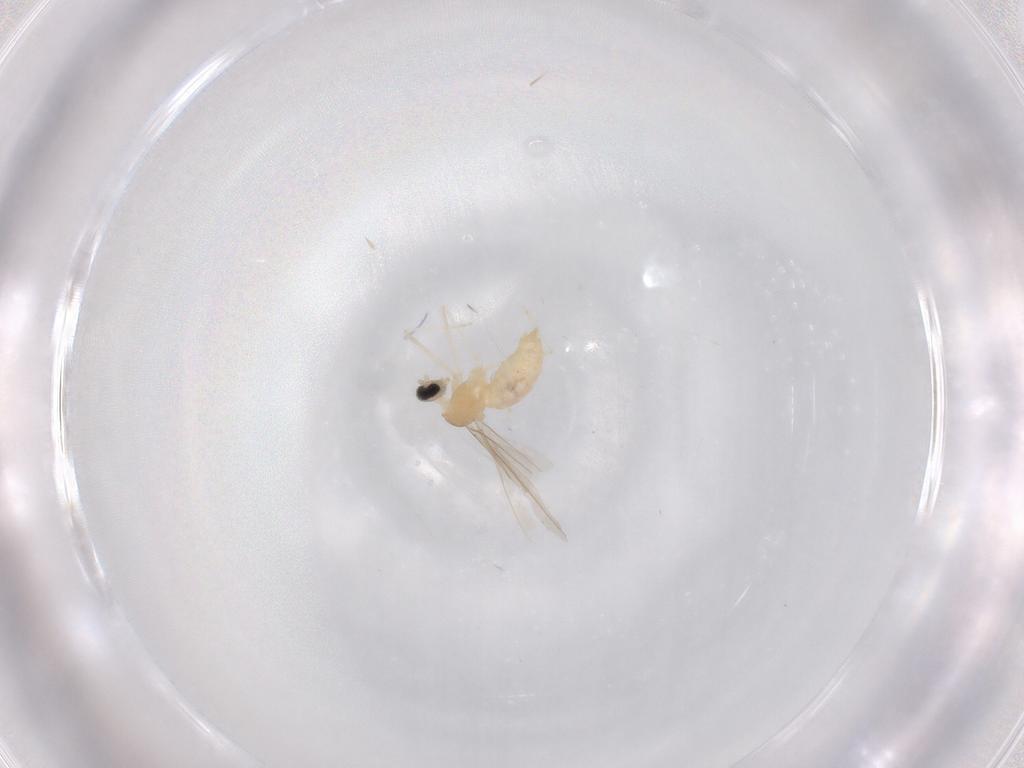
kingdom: Animalia
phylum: Arthropoda
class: Insecta
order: Diptera
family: Cecidomyiidae
